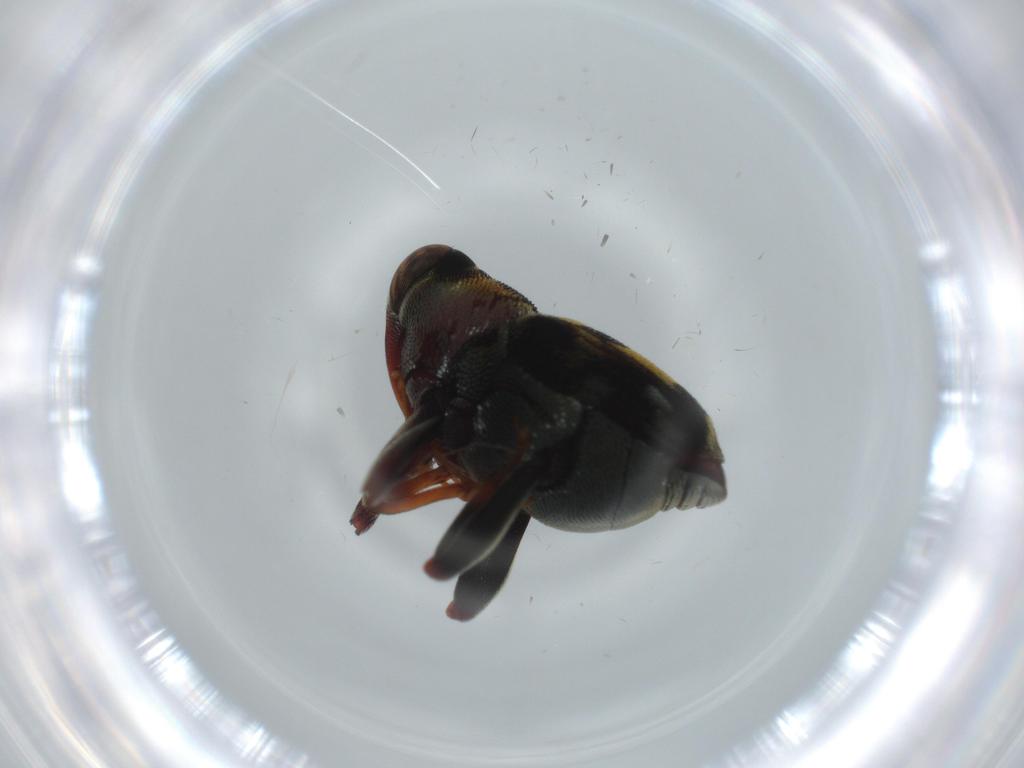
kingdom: Animalia
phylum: Arthropoda
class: Insecta
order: Coleoptera
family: Curculionidae
